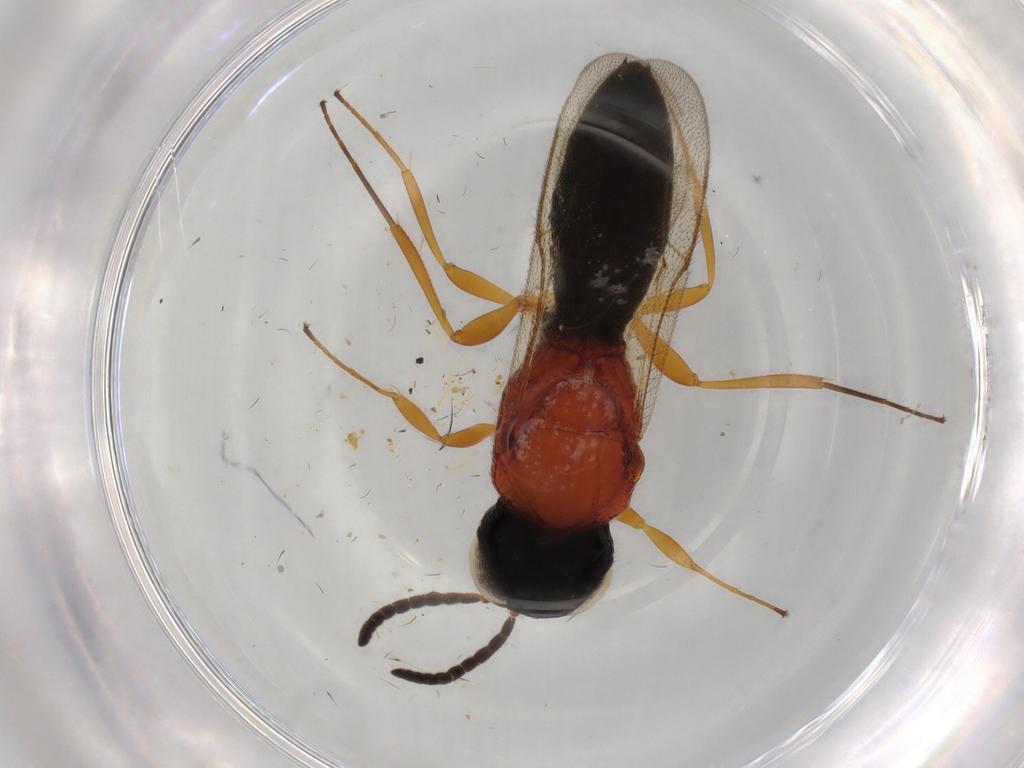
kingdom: Animalia
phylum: Arthropoda
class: Insecta
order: Hymenoptera
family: Scelionidae
